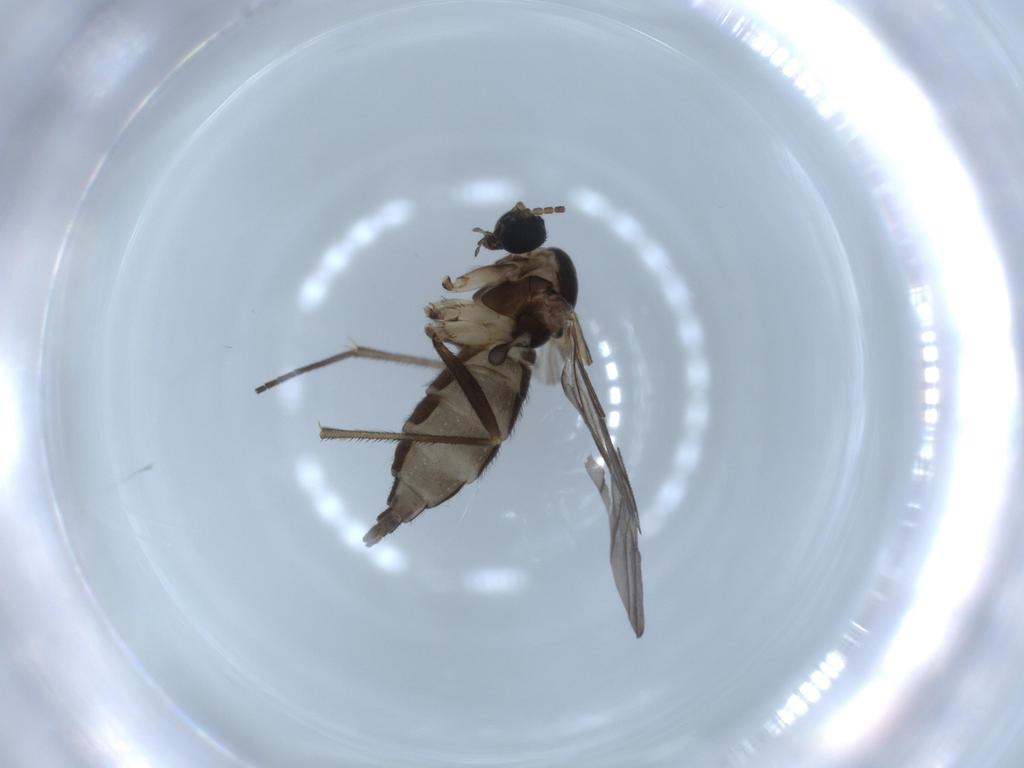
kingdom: Animalia
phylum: Arthropoda
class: Insecta
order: Diptera
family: Sciaridae
